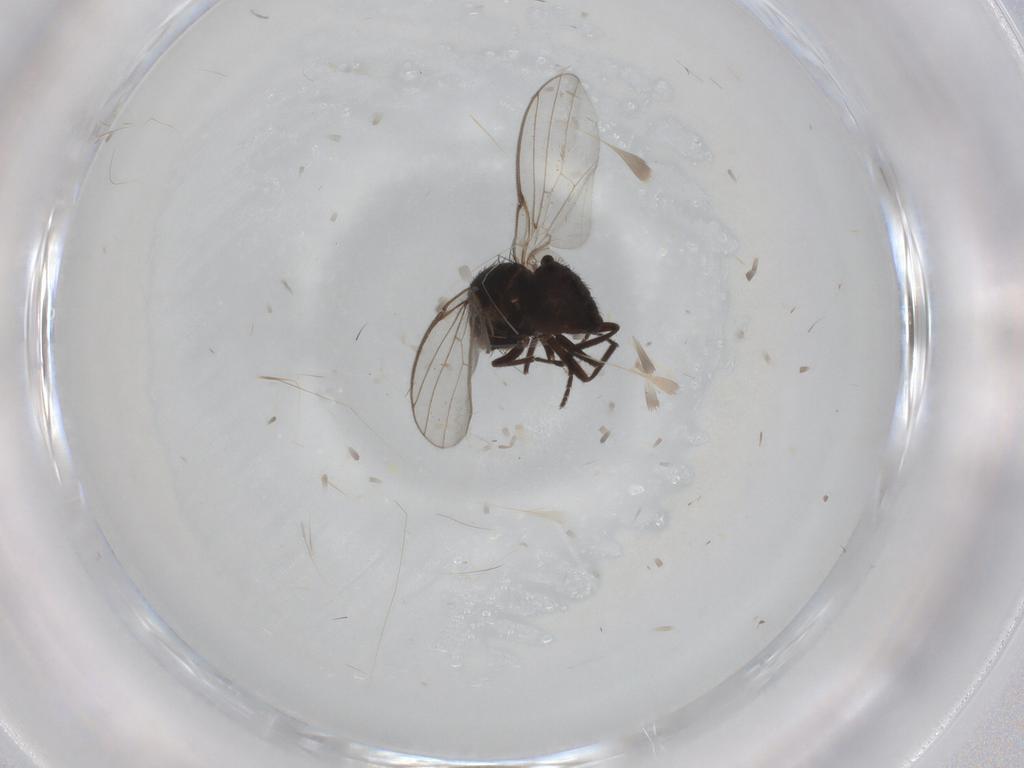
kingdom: Animalia
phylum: Arthropoda
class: Insecta
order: Diptera
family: Agromyzidae
